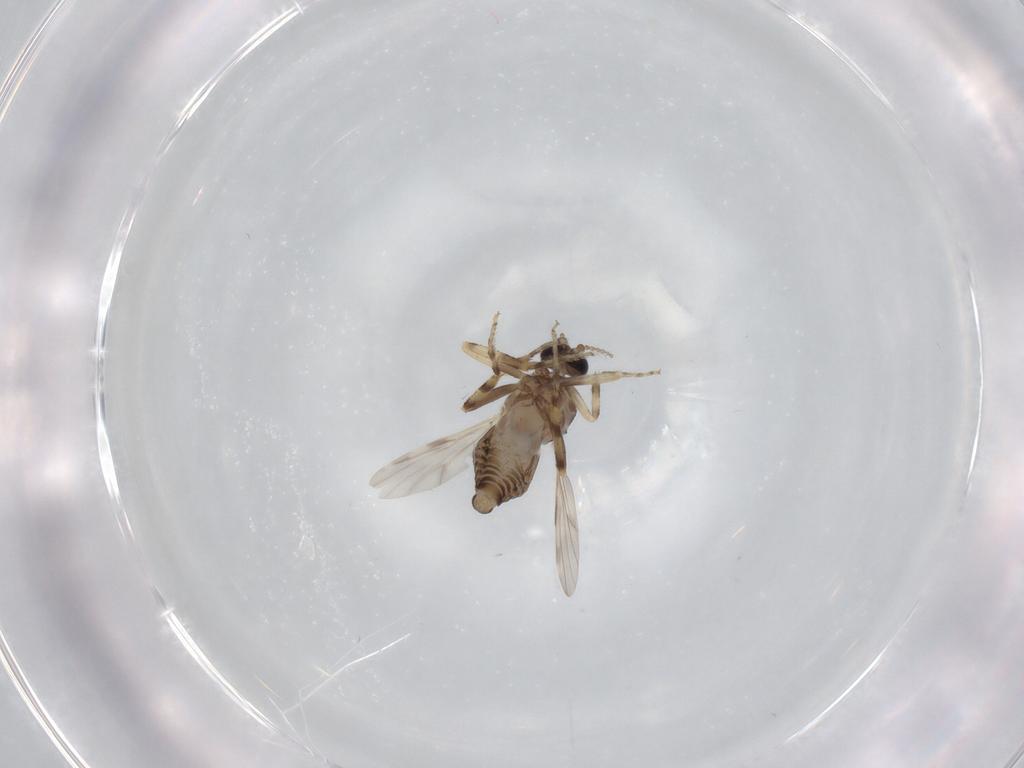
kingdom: Animalia
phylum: Arthropoda
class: Insecta
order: Diptera
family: Ceratopogonidae
